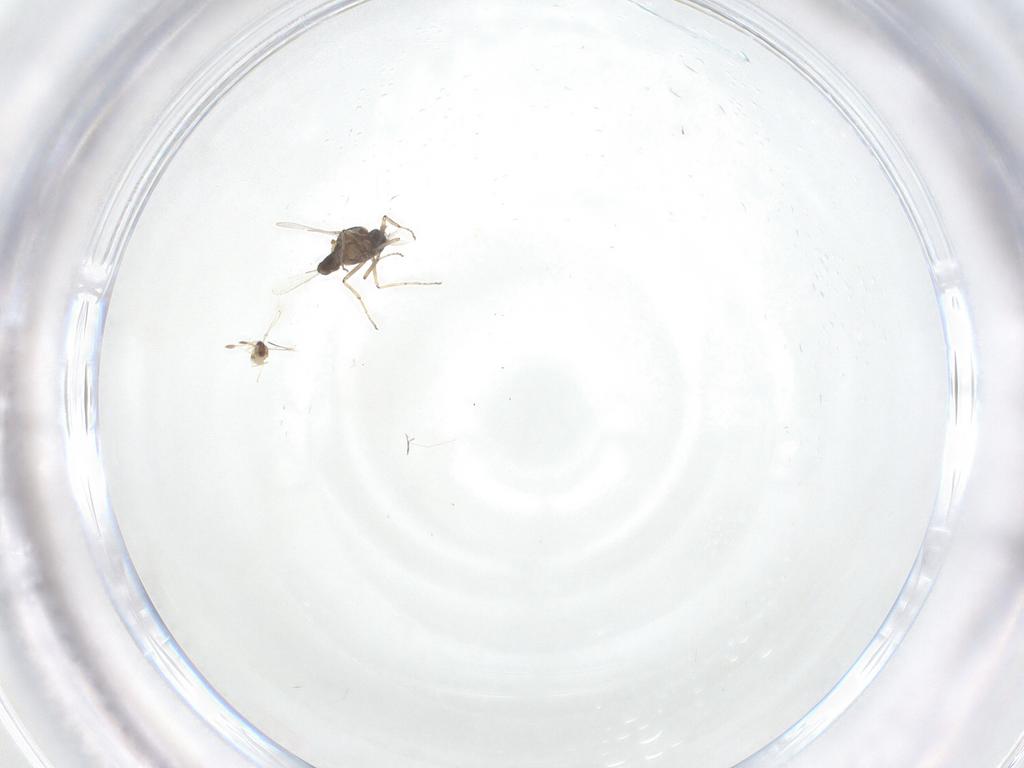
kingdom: Animalia
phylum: Arthropoda
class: Insecta
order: Diptera
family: Ceratopogonidae
